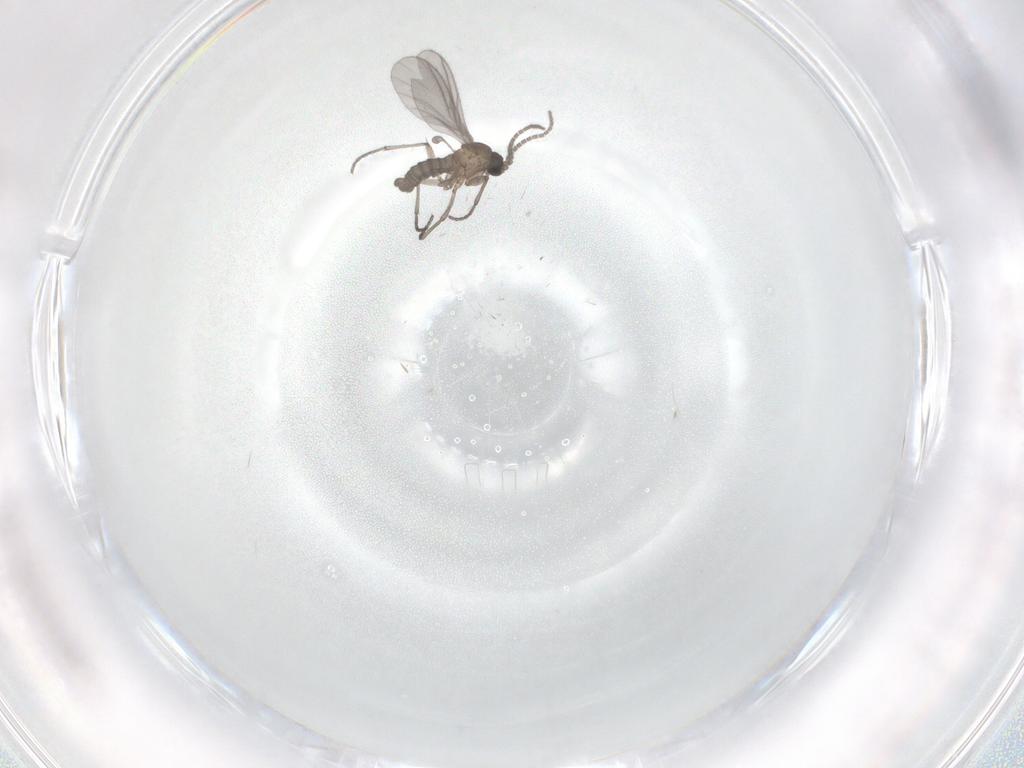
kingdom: Animalia
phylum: Arthropoda
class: Insecta
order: Diptera
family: Sciaridae
